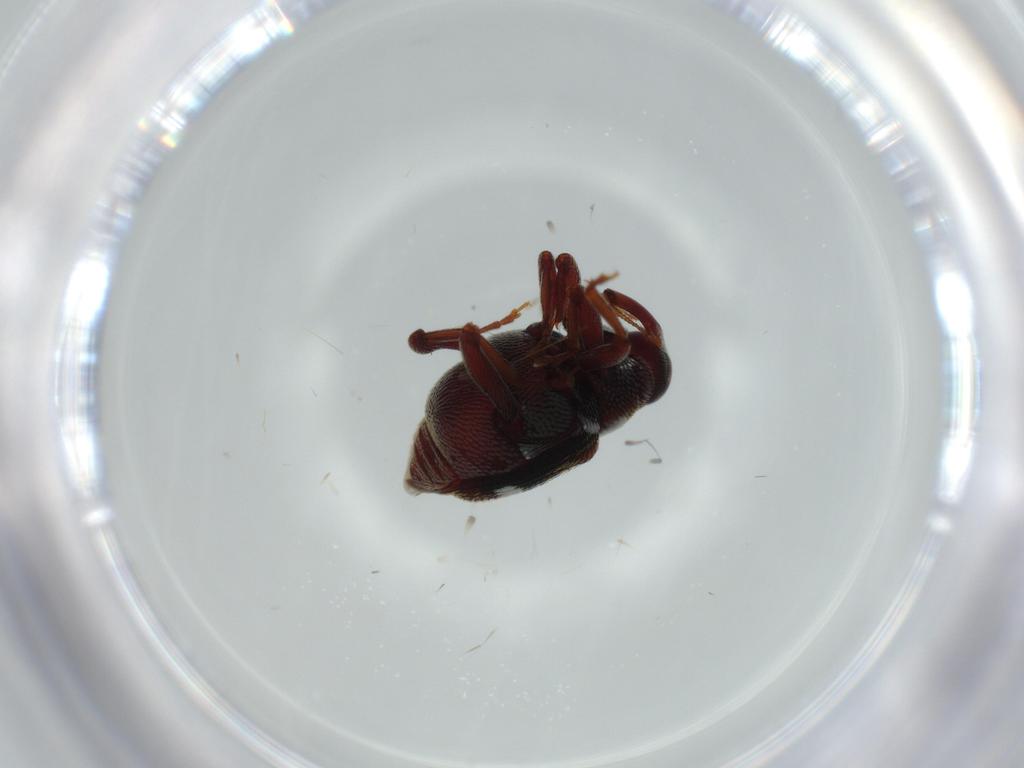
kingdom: Animalia
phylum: Arthropoda
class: Insecta
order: Coleoptera
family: Chrysomelidae
